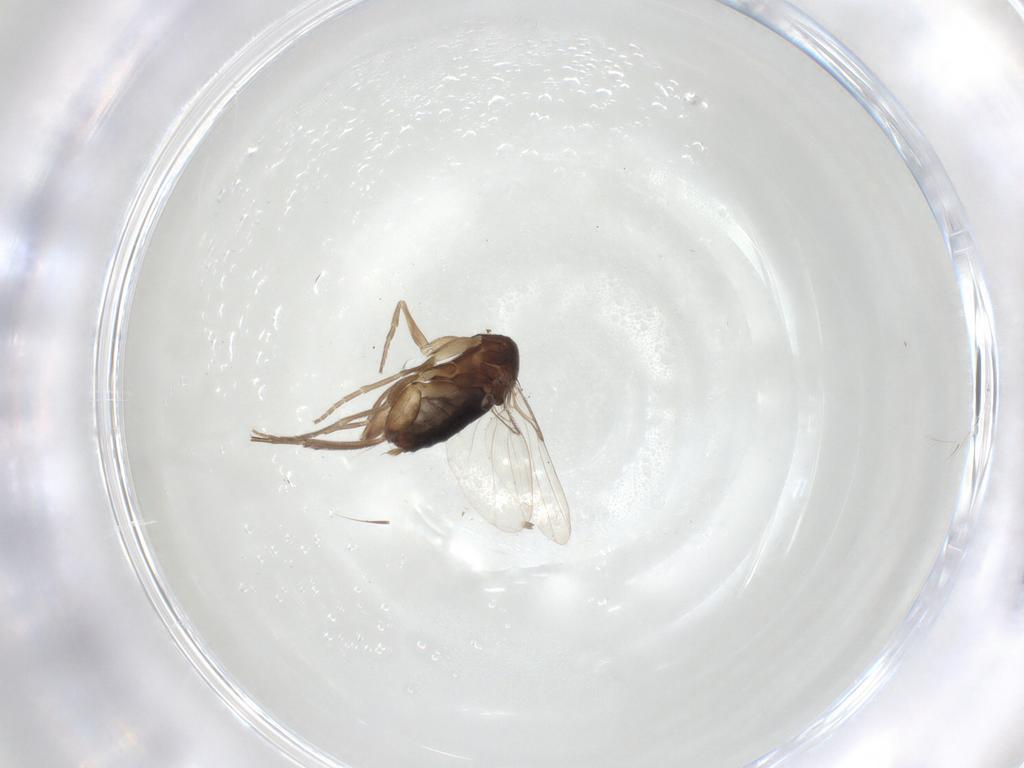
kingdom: Animalia
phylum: Arthropoda
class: Insecta
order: Diptera
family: Phoridae
